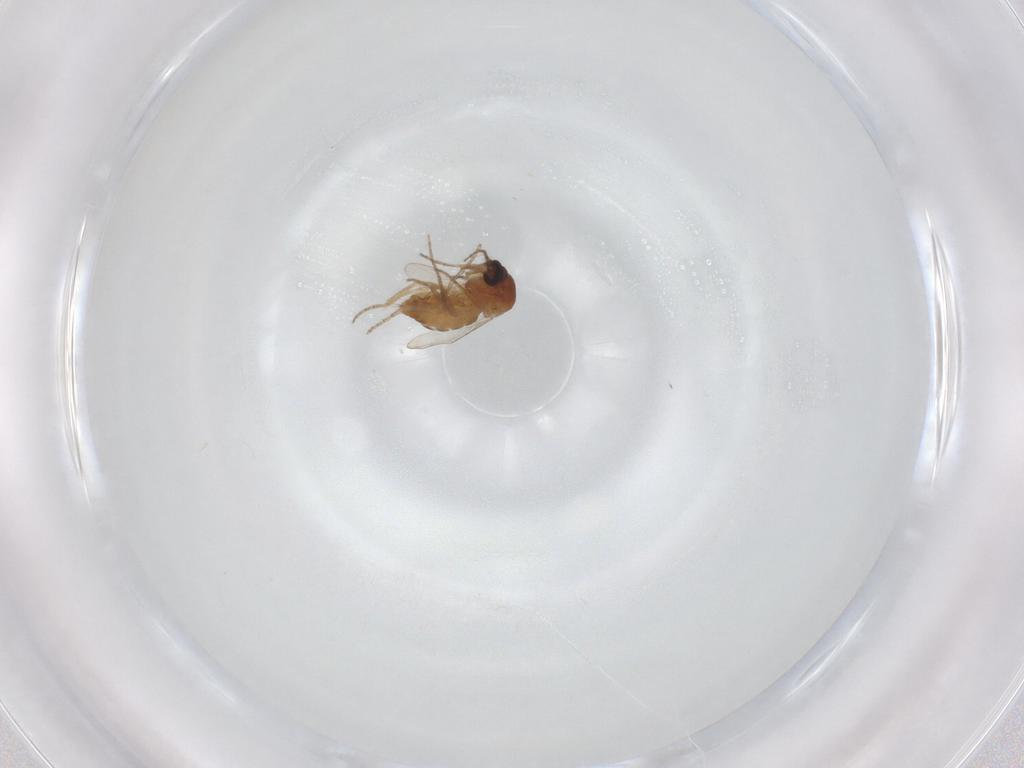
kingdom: Animalia
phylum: Arthropoda
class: Insecta
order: Diptera
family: Ceratopogonidae
